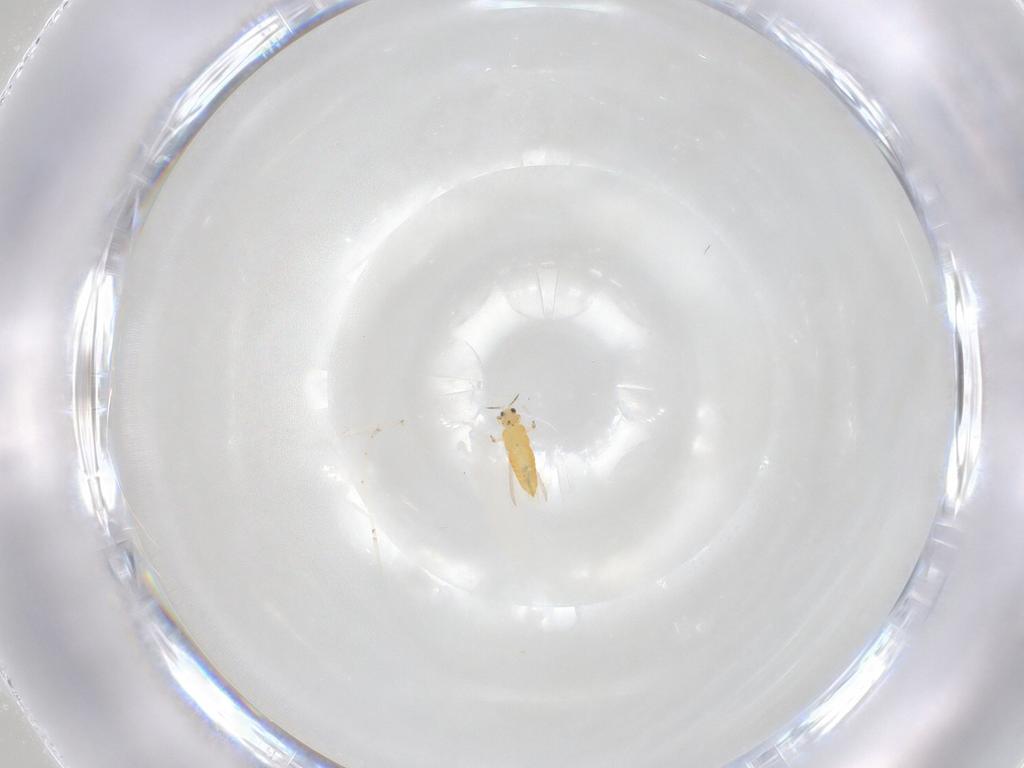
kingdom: Animalia
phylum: Arthropoda
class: Insecta
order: Thysanoptera
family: Thripidae
